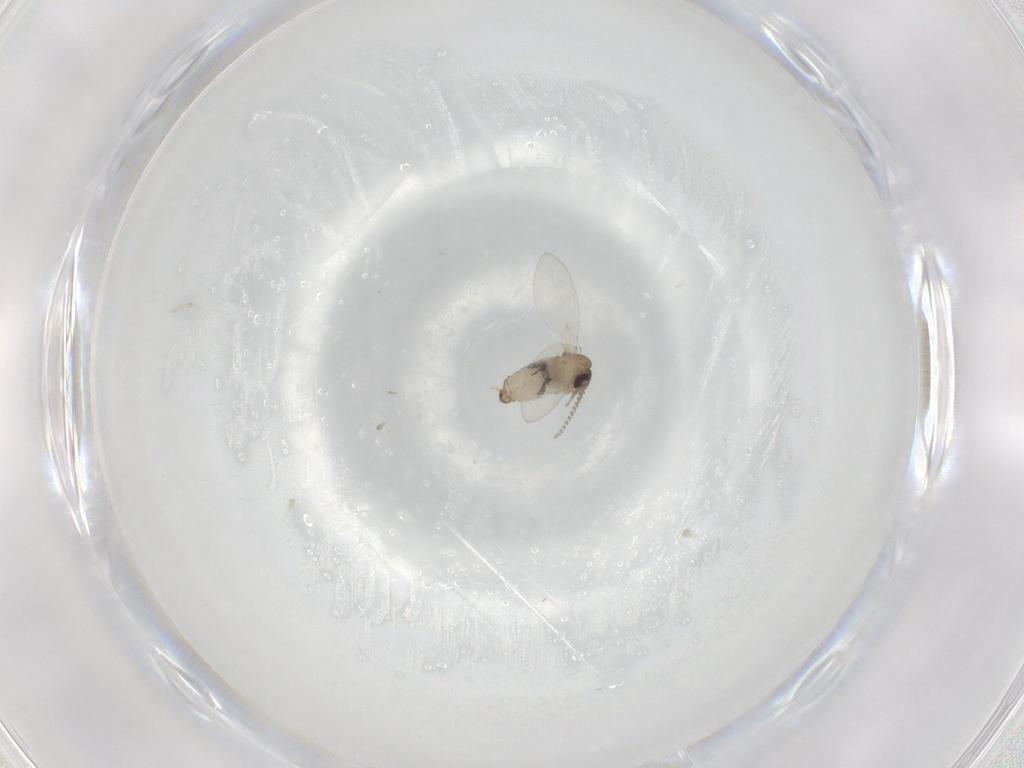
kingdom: Animalia
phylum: Arthropoda
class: Insecta
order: Diptera
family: Psychodidae
